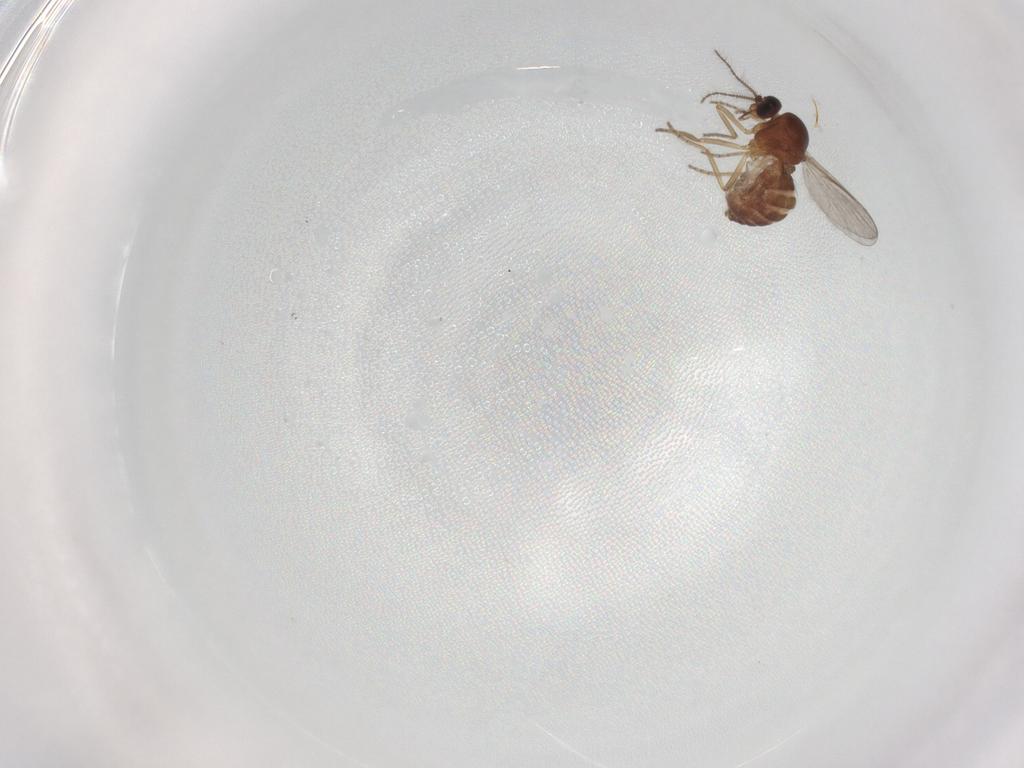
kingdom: Animalia
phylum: Arthropoda
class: Insecta
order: Diptera
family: Ceratopogonidae
